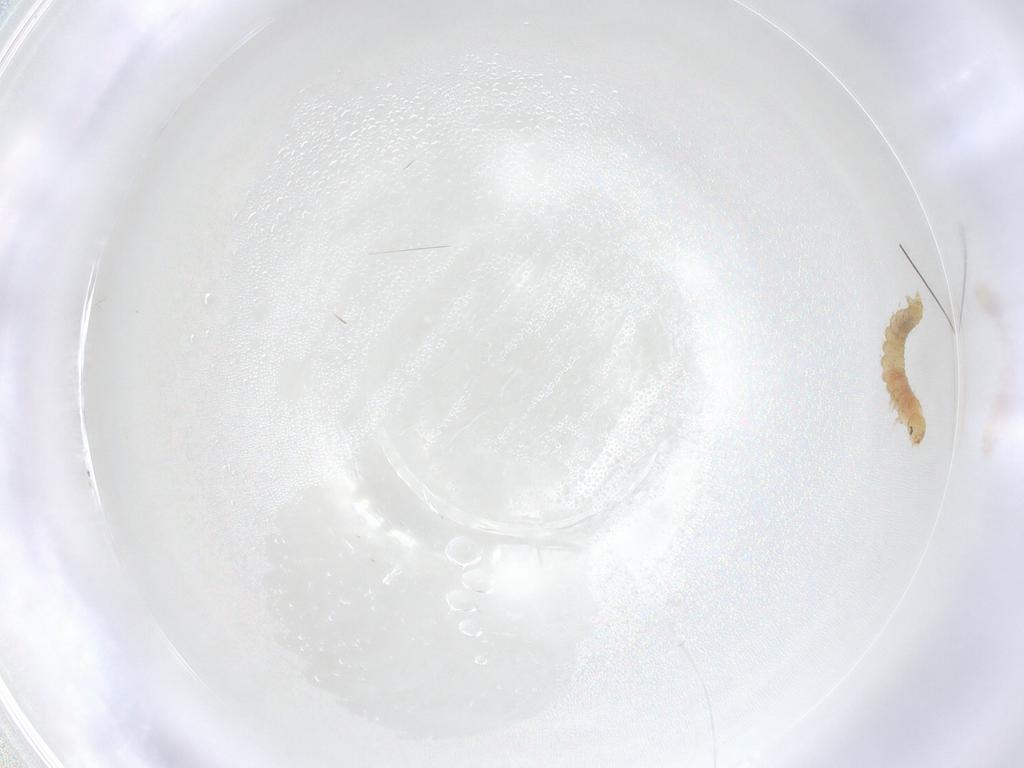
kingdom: Animalia
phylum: Arthropoda
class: Insecta
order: Lepidoptera
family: Gelechiidae
